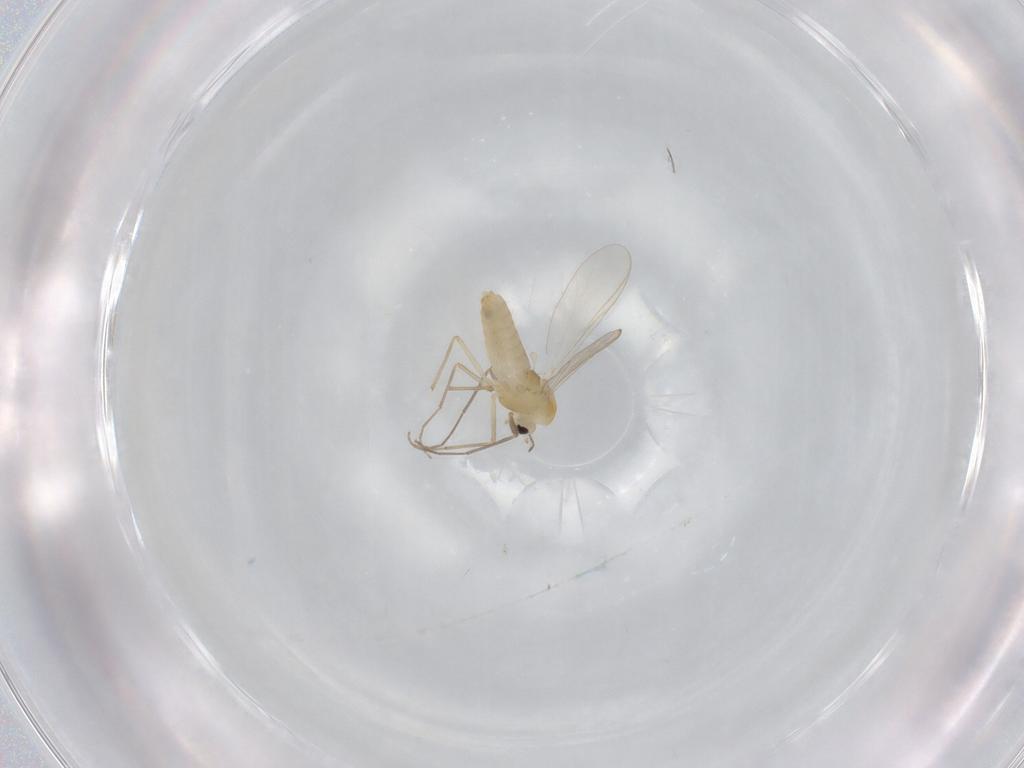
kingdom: Animalia
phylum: Arthropoda
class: Insecta
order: Diptera
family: Chironomidae
